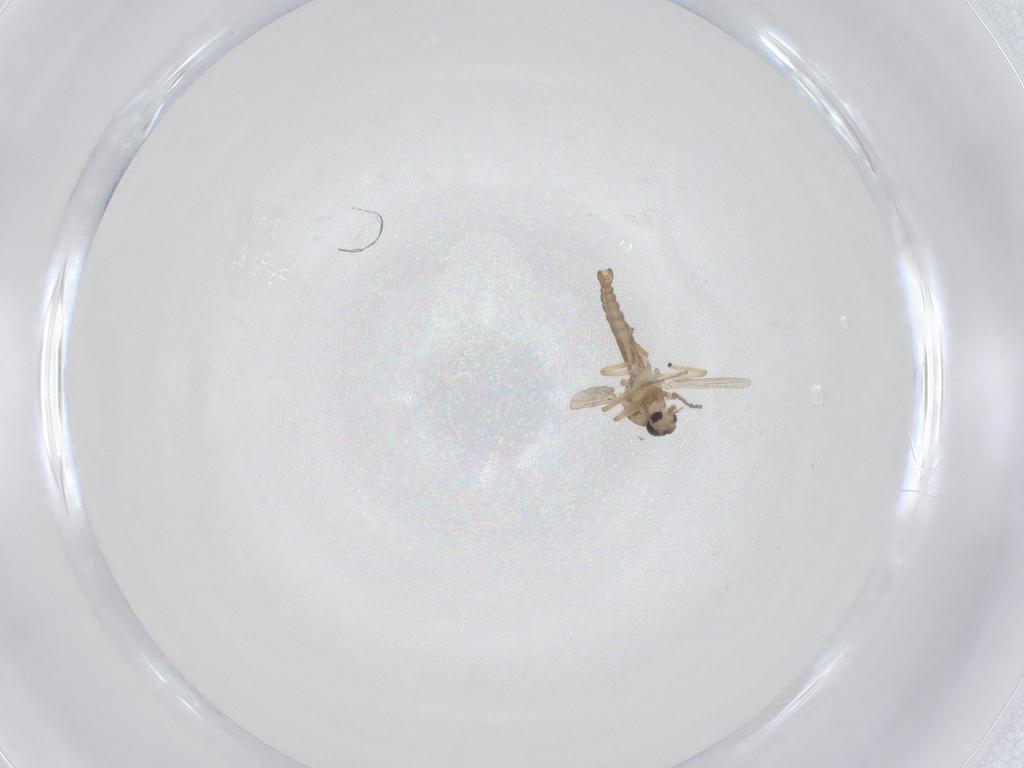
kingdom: Animalia
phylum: Arthropoda
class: Insecta
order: Diptera
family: Ceratopogonidae
